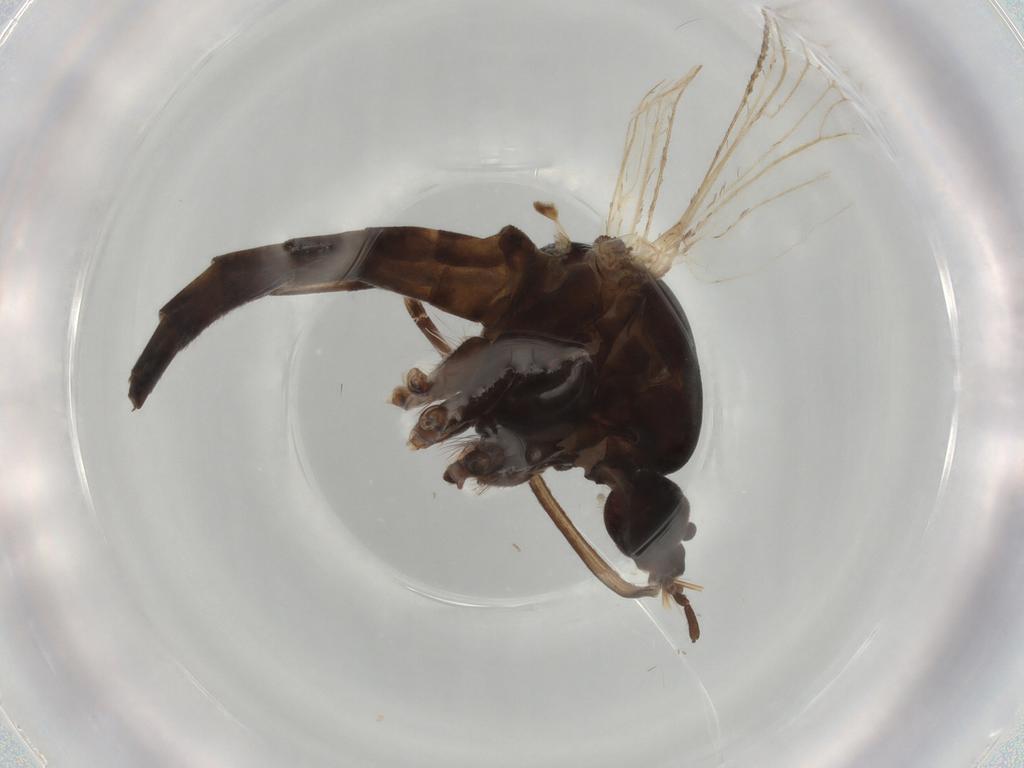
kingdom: Animalia
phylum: Arthropoda
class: Insecta
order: Diptera
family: Culicidae
